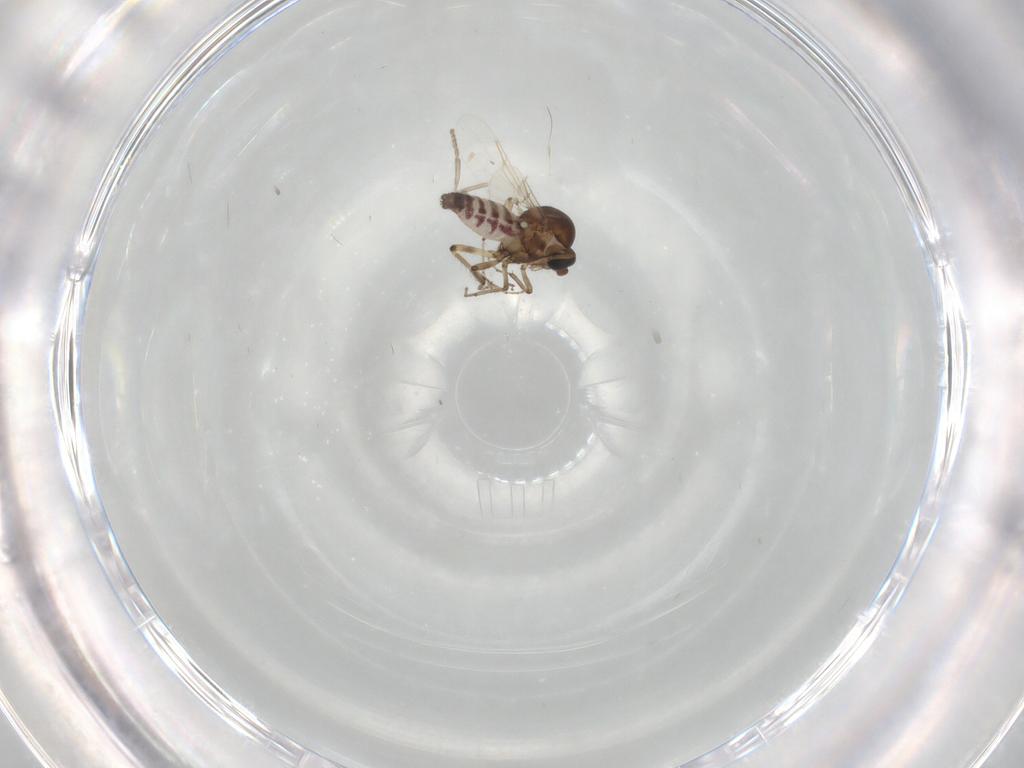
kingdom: Animalia
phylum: Arthropoda
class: Insecta
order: Diptera
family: Ceratopogonidae
